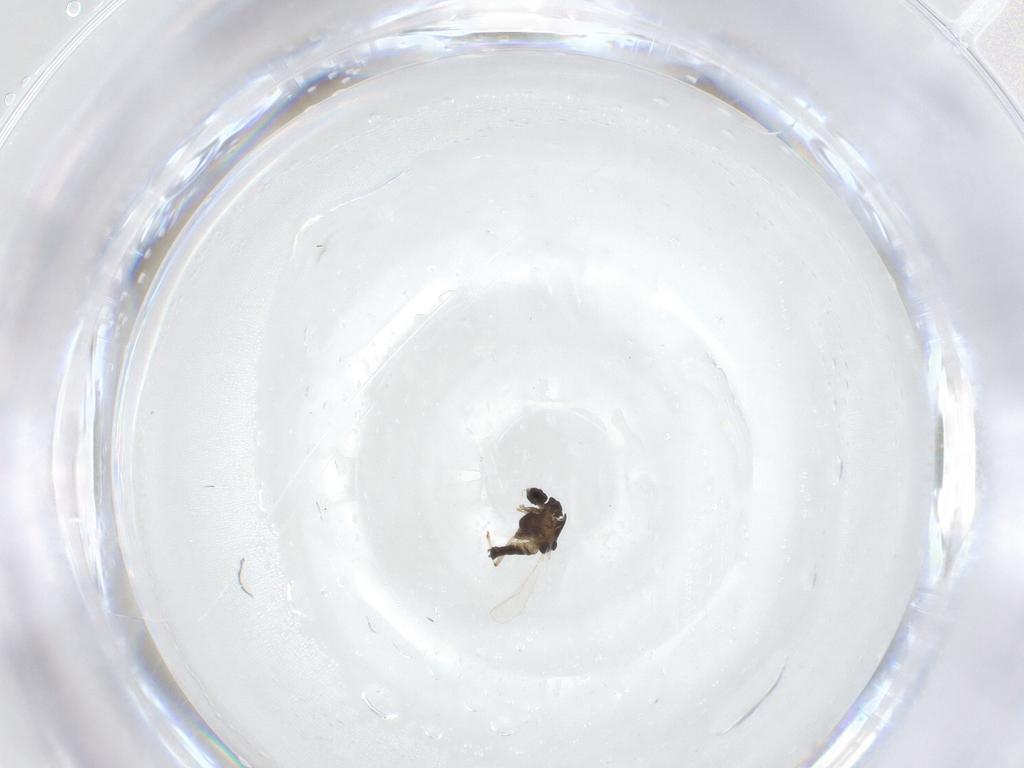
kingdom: Animalia
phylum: Arthropoda
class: Insecta
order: Diptera
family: Chironomidae
